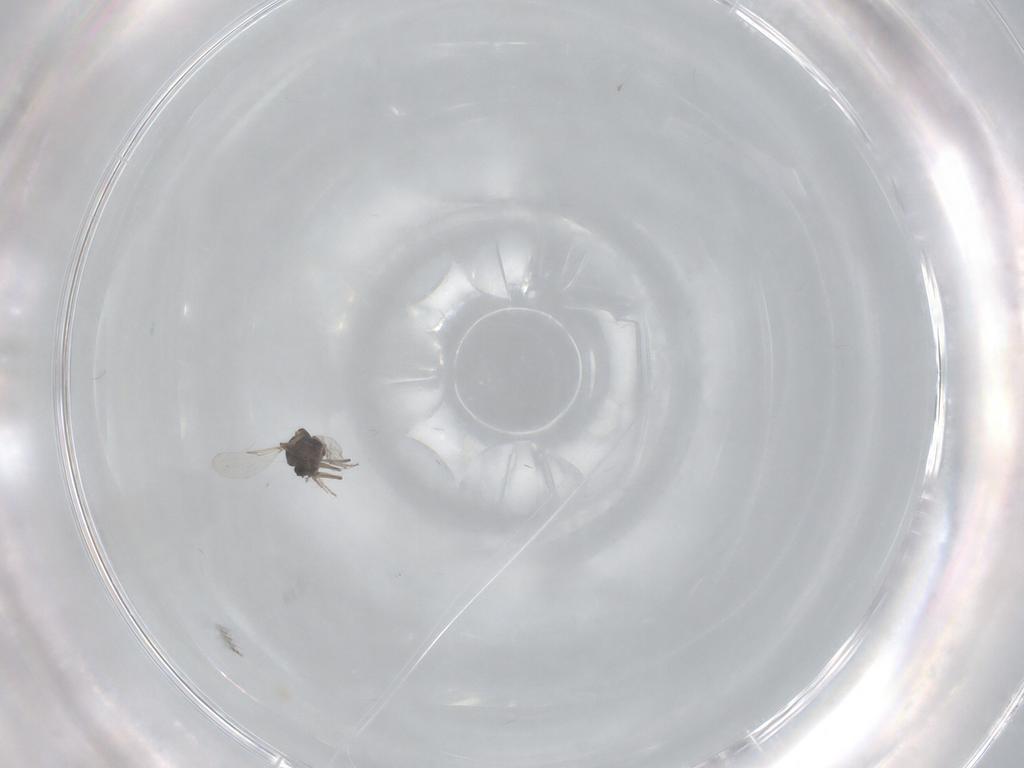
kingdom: Animalia
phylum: Arthropoda
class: Insecta
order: Diptera
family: Ceratopogonidae
